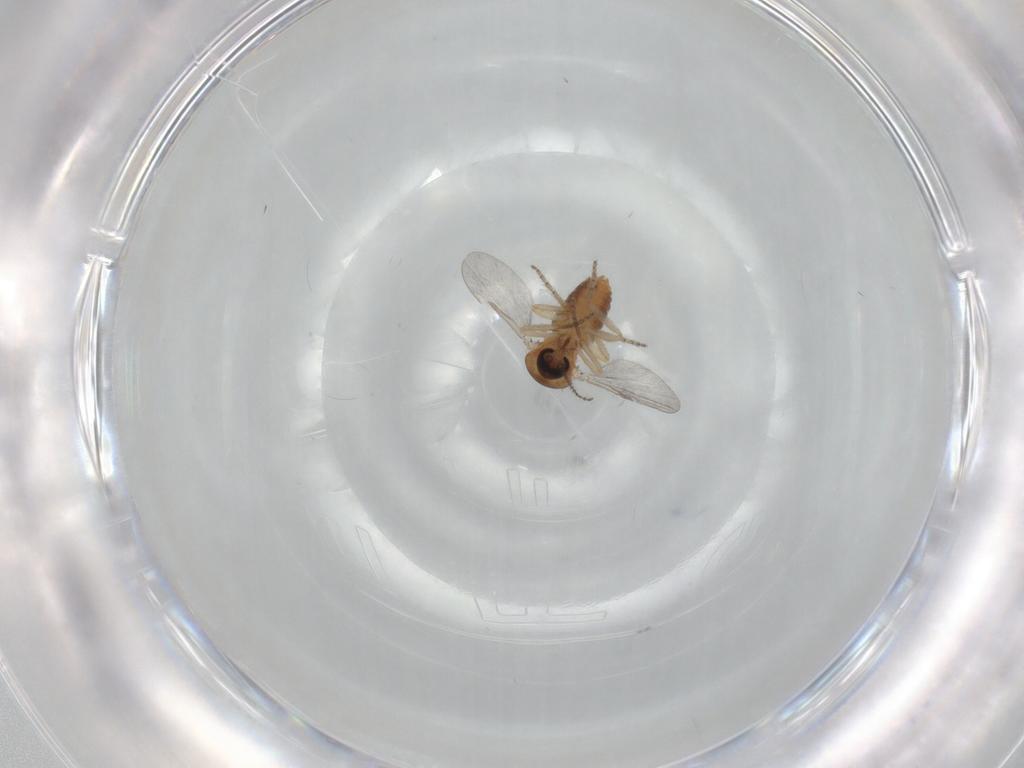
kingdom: Animalia
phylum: Arthropoda
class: Insecta
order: Diptera
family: Ceratopogonidae
